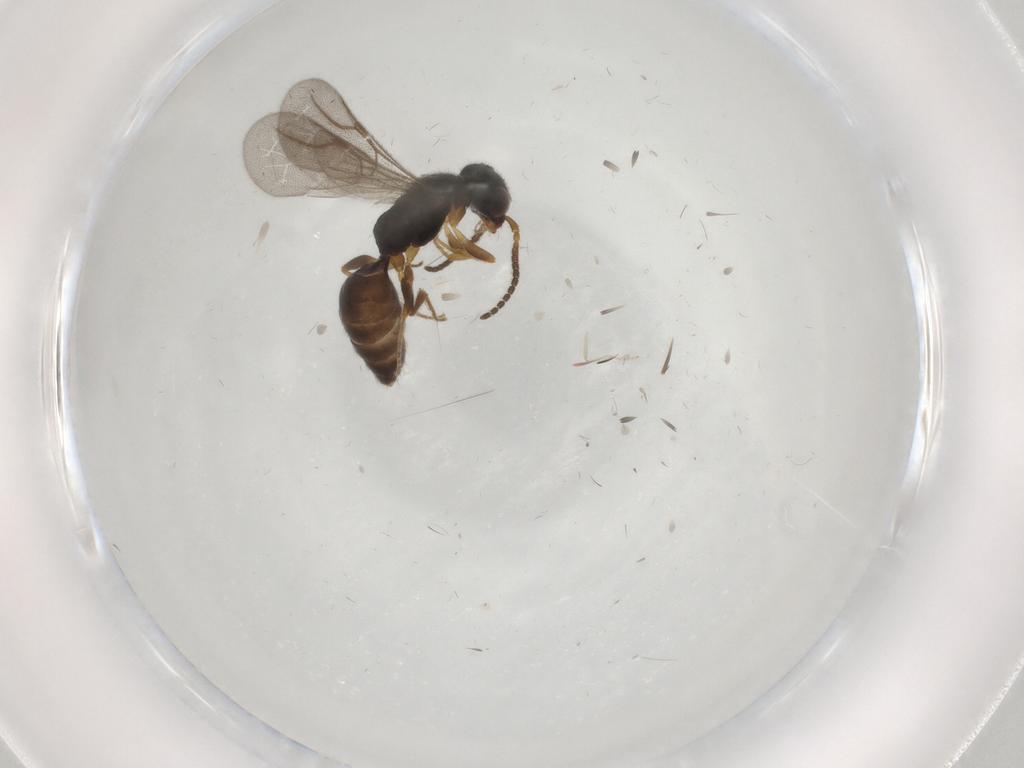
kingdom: Animalia
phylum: Arthropoda
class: Insecta
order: Hymenoptera
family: Bethylidae
